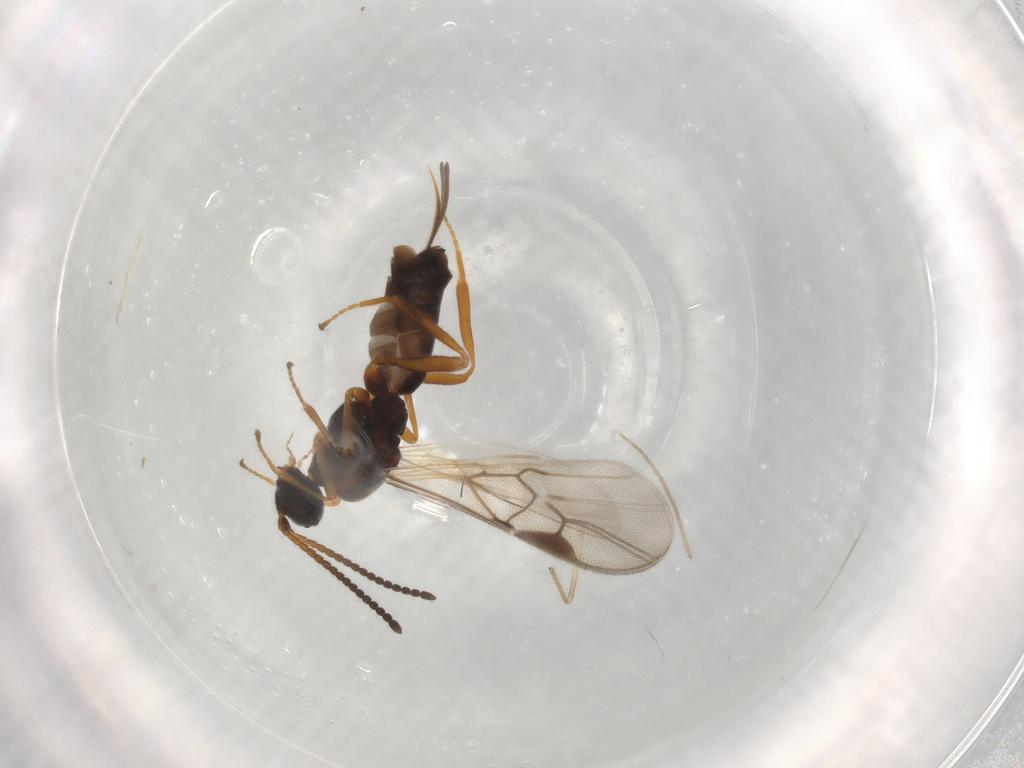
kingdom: Animalia
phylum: Arthropoda
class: Insecta
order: Hymenoptera
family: Braconidae
